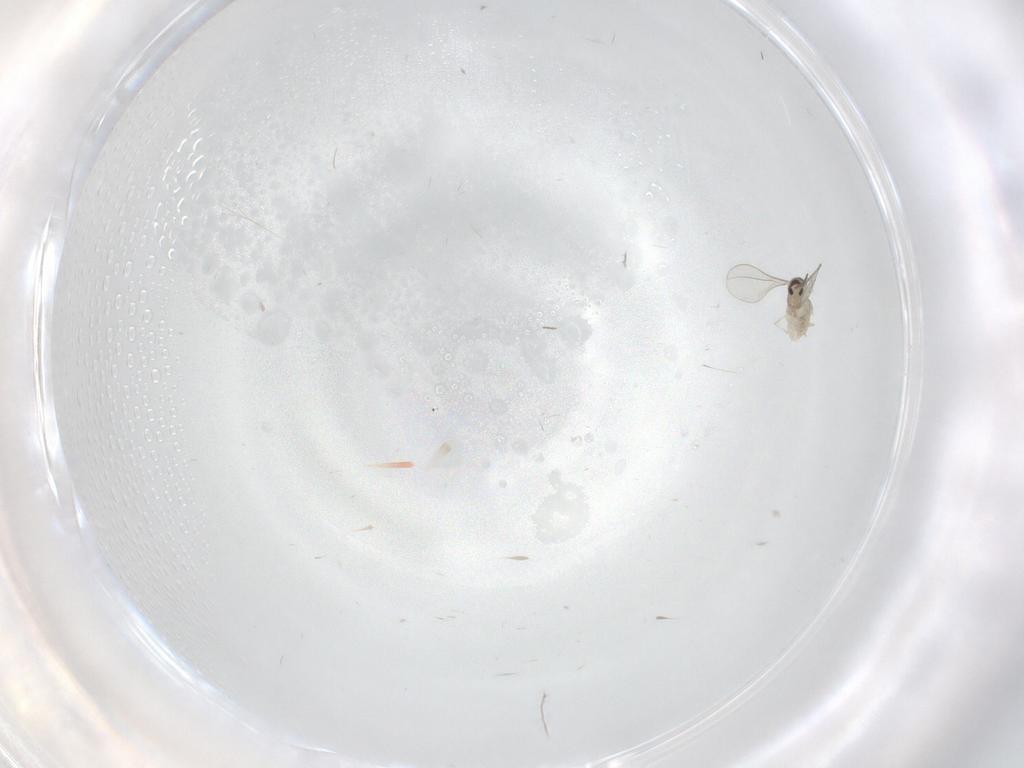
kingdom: Animalia
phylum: Arthropoda
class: Insecta
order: Diptera
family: Cecidomyiidae
